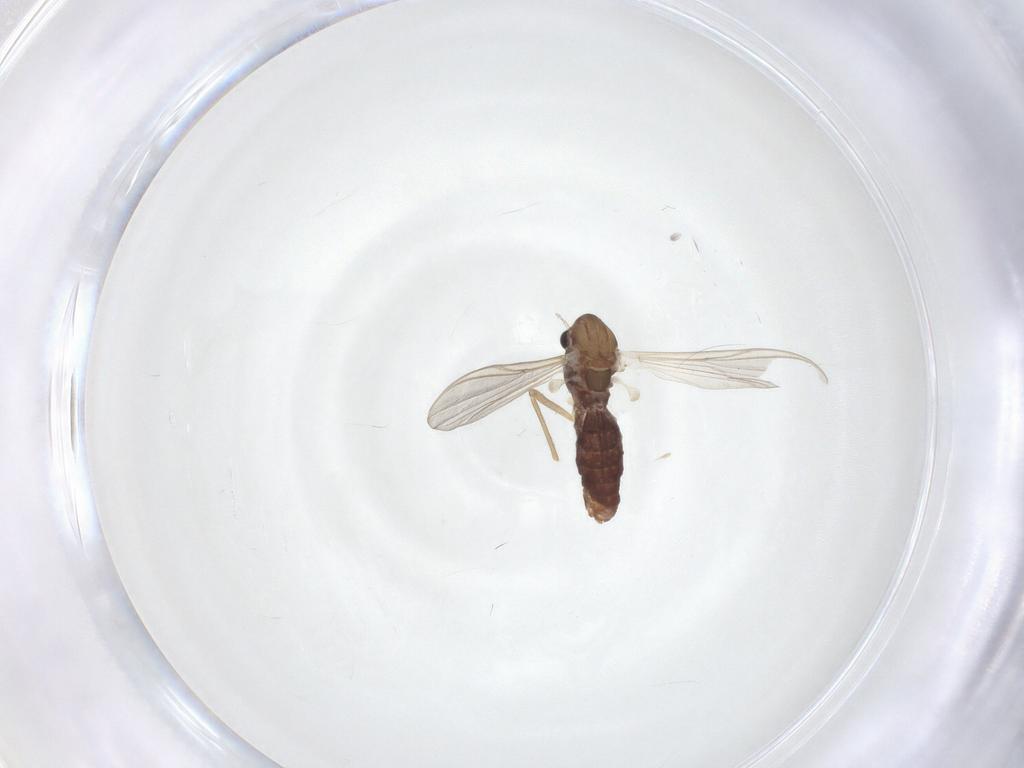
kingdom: Animalia
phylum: Arthropoda
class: Insecta
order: Diptera
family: Chironomidae
